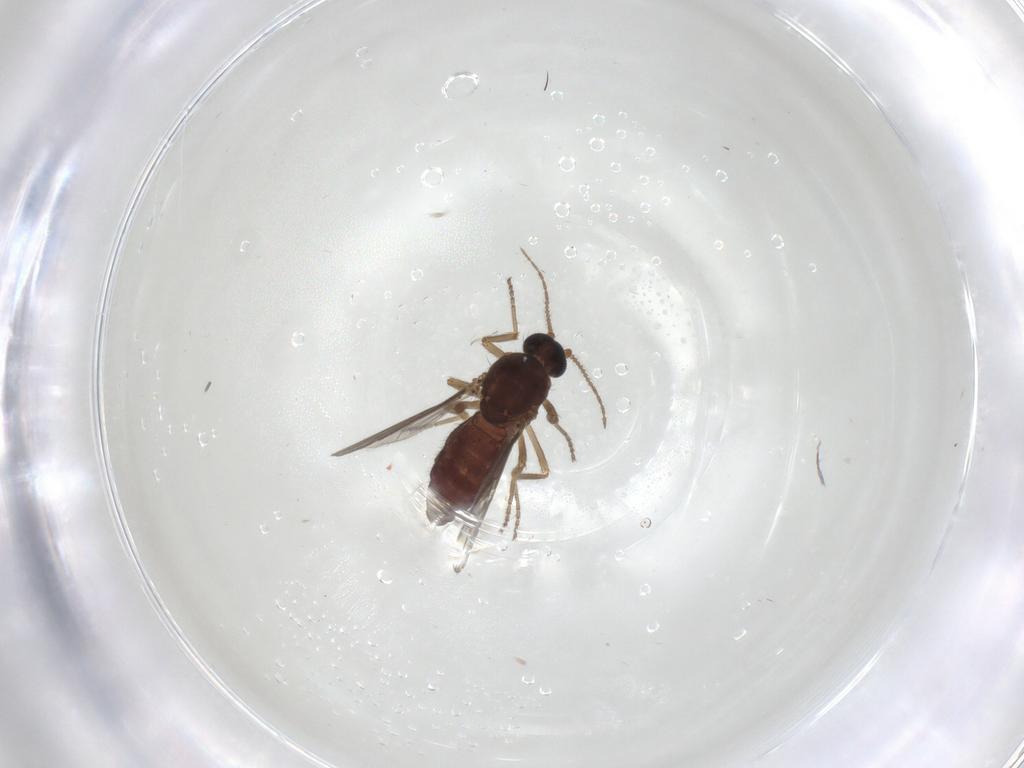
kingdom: Animalia
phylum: Arthropoda
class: Insecta
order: Diptera
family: Ceratopogonidae
